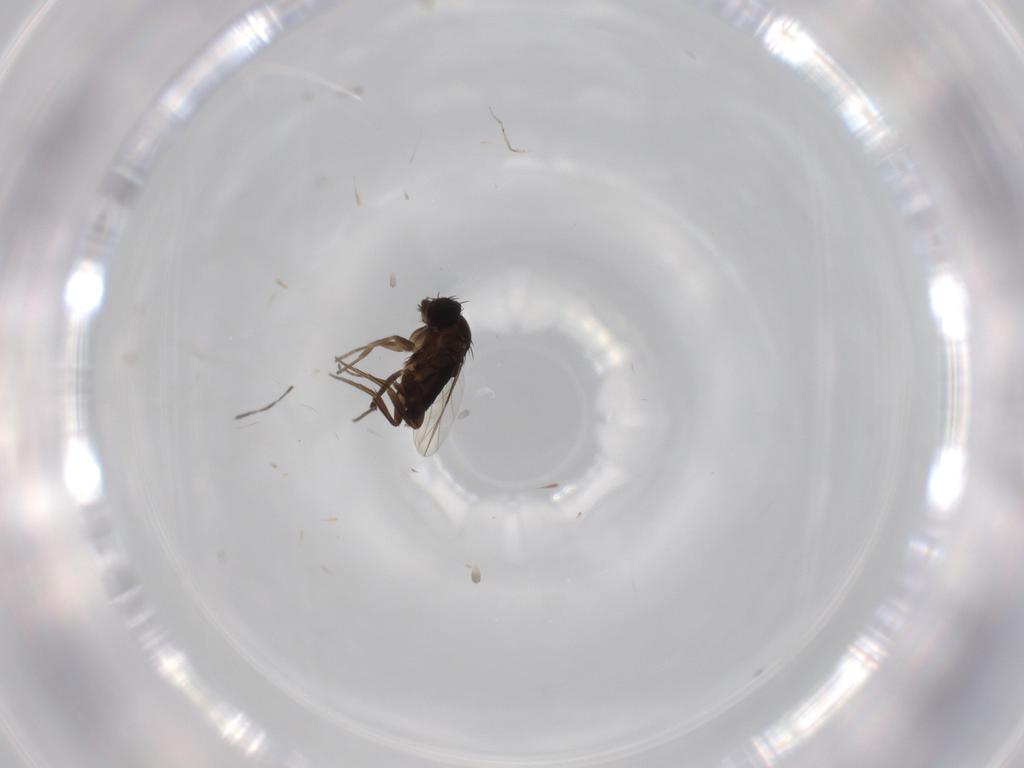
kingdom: Animalia
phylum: Arthropoda
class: Insecta
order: Diptera
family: Phoridae
